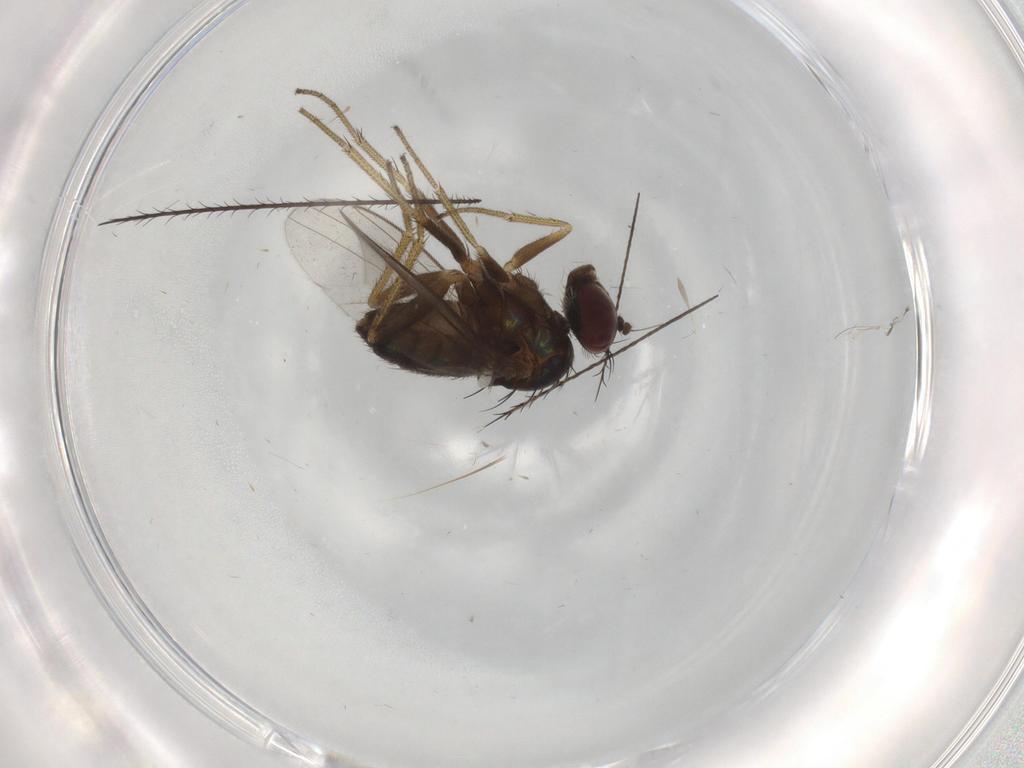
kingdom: Animalia
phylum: Arthropoda
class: Insecta
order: Diptera
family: Dolichopodidae
